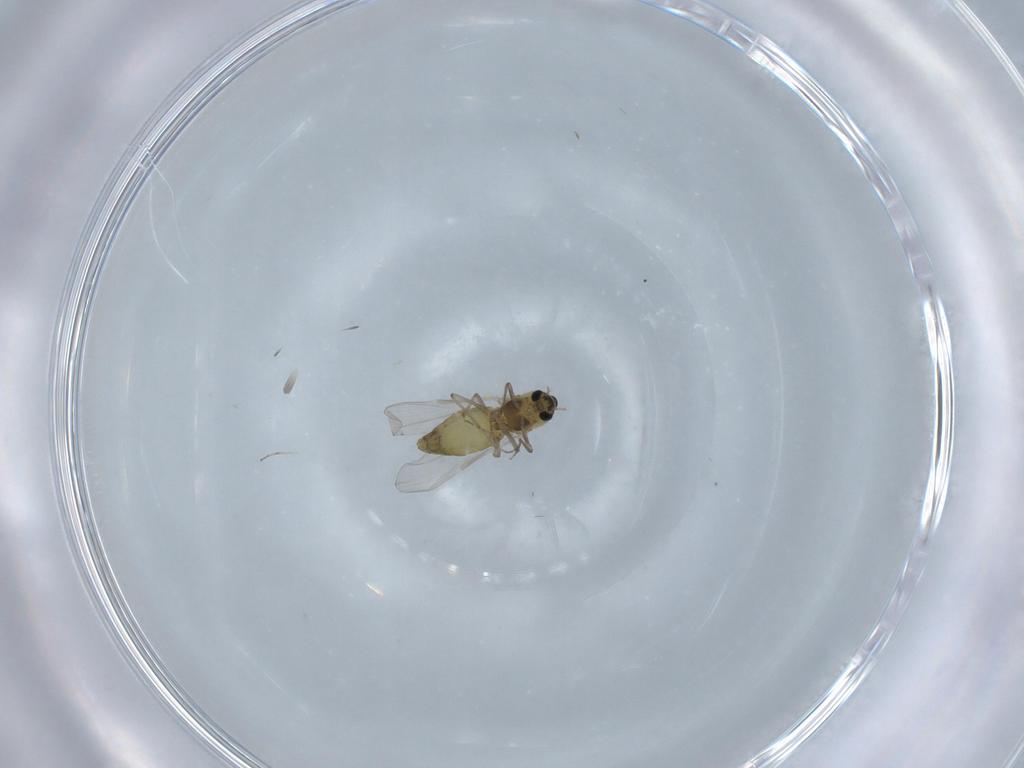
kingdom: Animalia
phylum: Arthropoda
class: Insecta
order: Diptera
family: Chironomidae
